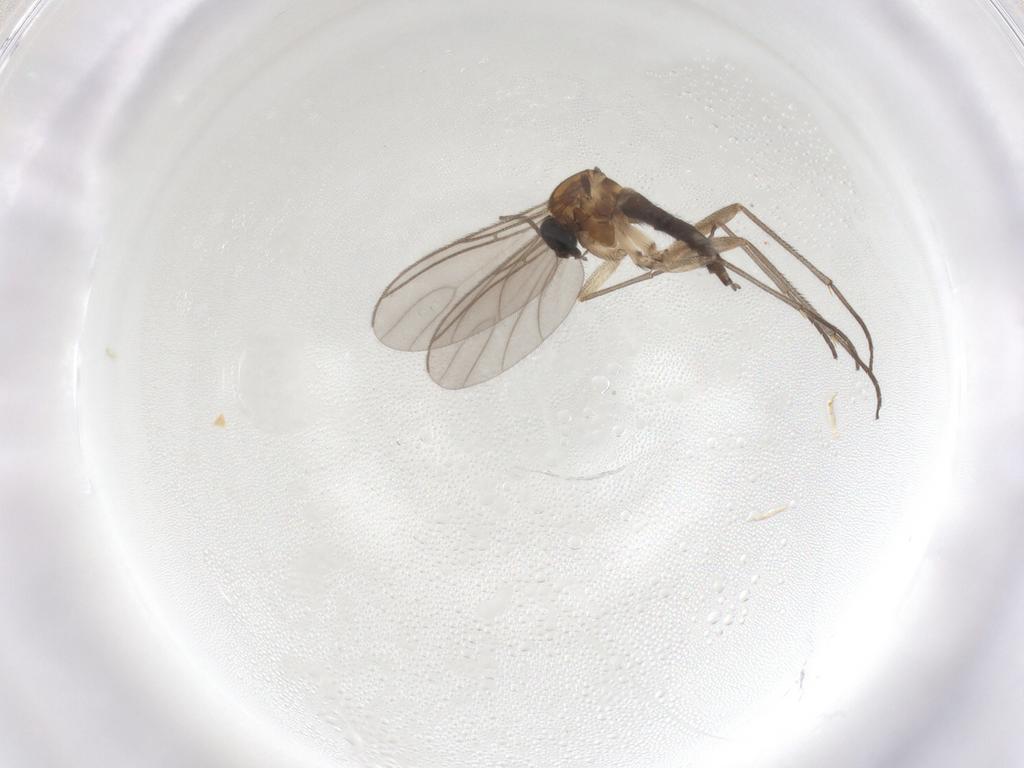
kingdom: Animalia
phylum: Arthropoda
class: Insecta
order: Diptera
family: Sciaridae
